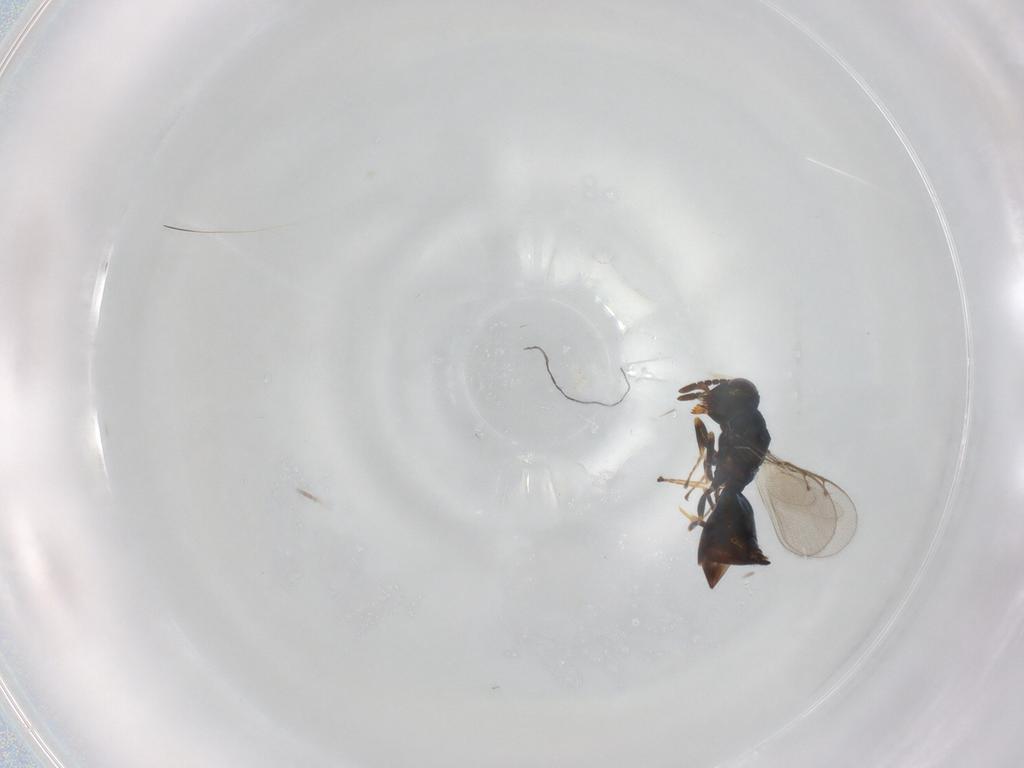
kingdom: Animalia
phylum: Arthropoda
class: Insecta
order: Hymenoptera
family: Pteromalidae
